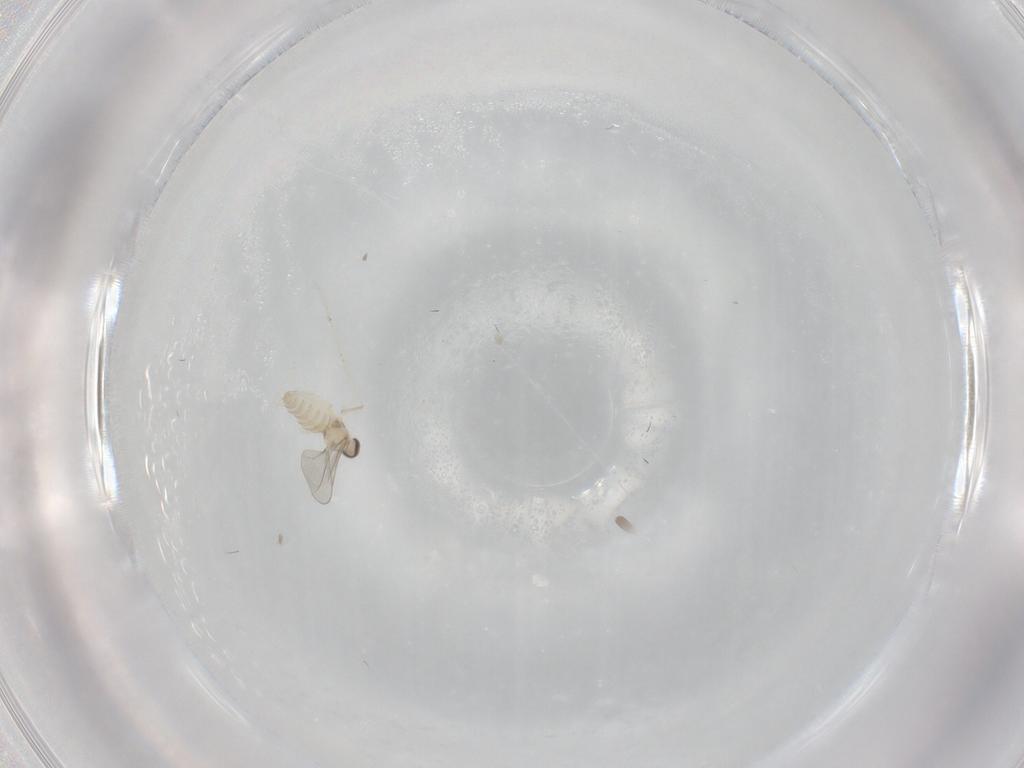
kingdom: Animalia
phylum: Arthropoda
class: Insecta
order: Diptera
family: Cecidomyiidae
